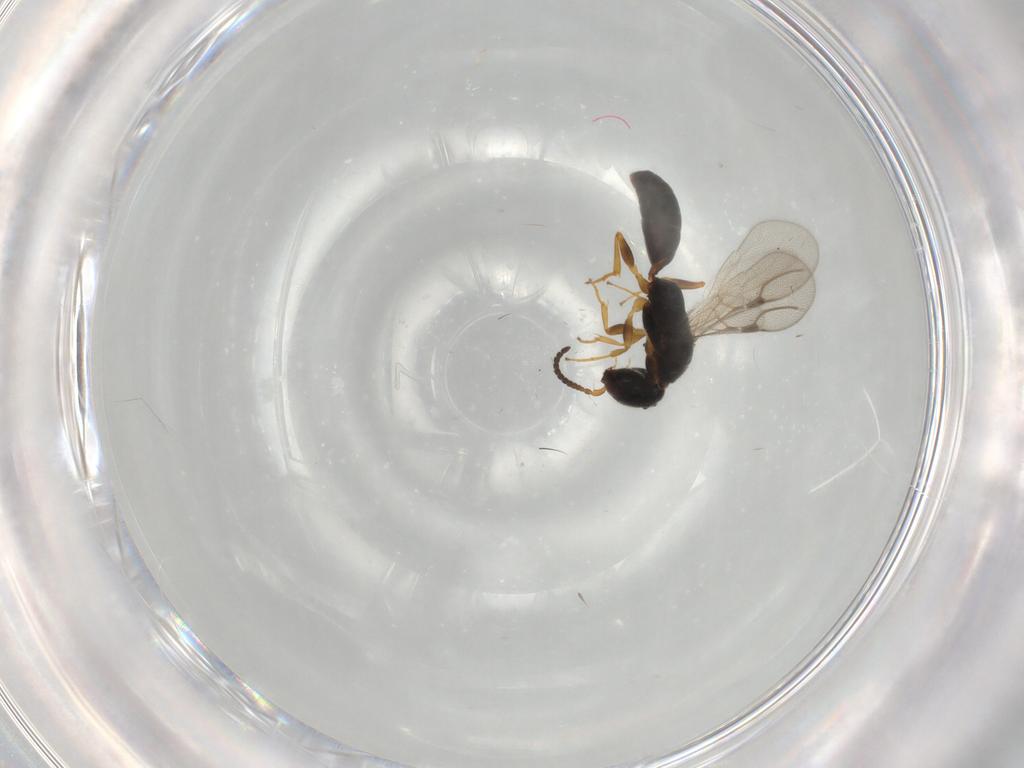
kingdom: Animalia
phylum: Arthropoda
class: Insecta
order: Hymenoptera
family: Bethylidae
